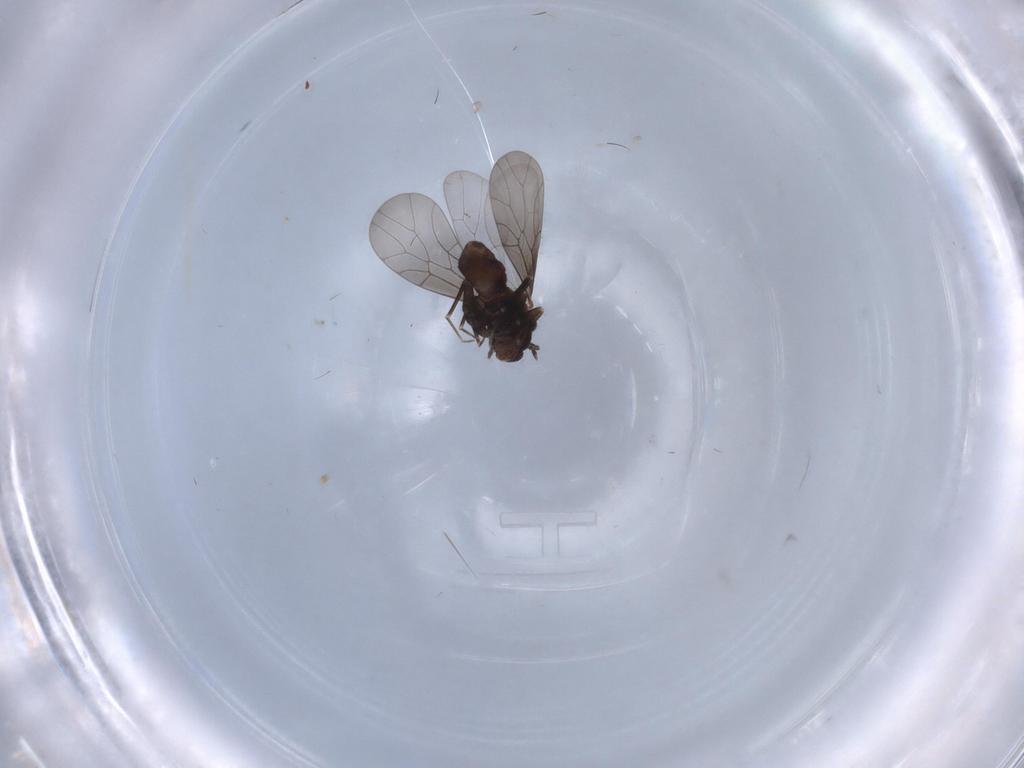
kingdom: Animalia
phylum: Arthropoda
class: Insecta
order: Psocodea
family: Lepidopsocidae
